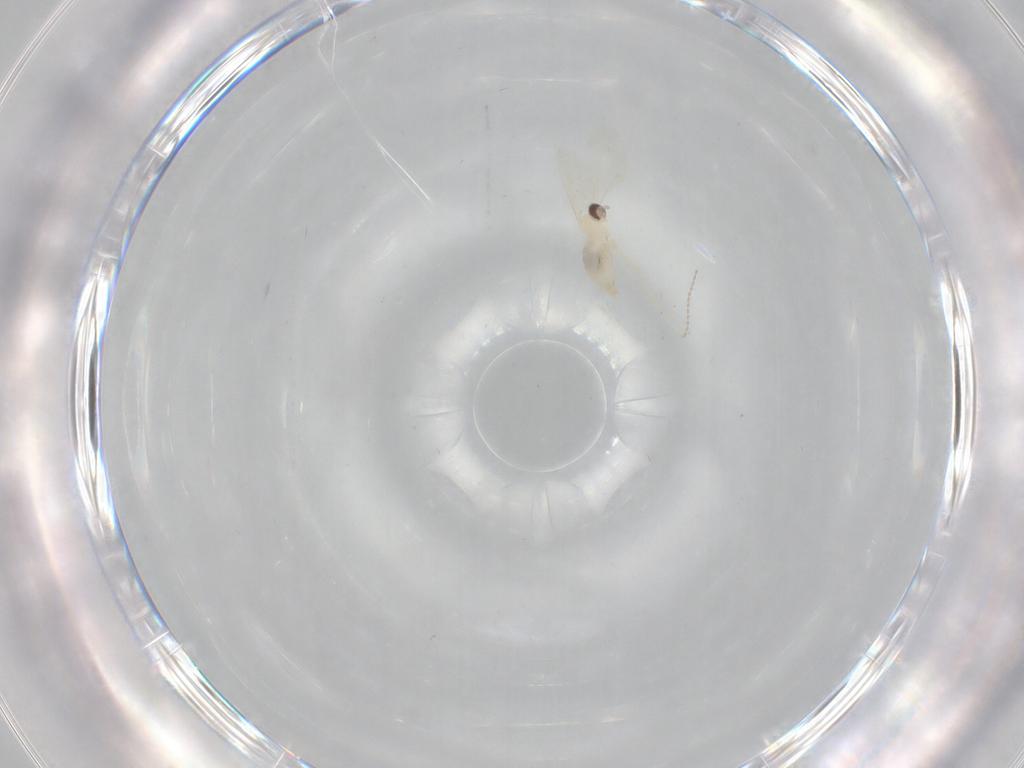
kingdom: Animalia
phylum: Arthropoda
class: Insecta
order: Diptera
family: Cecidomyiidae
